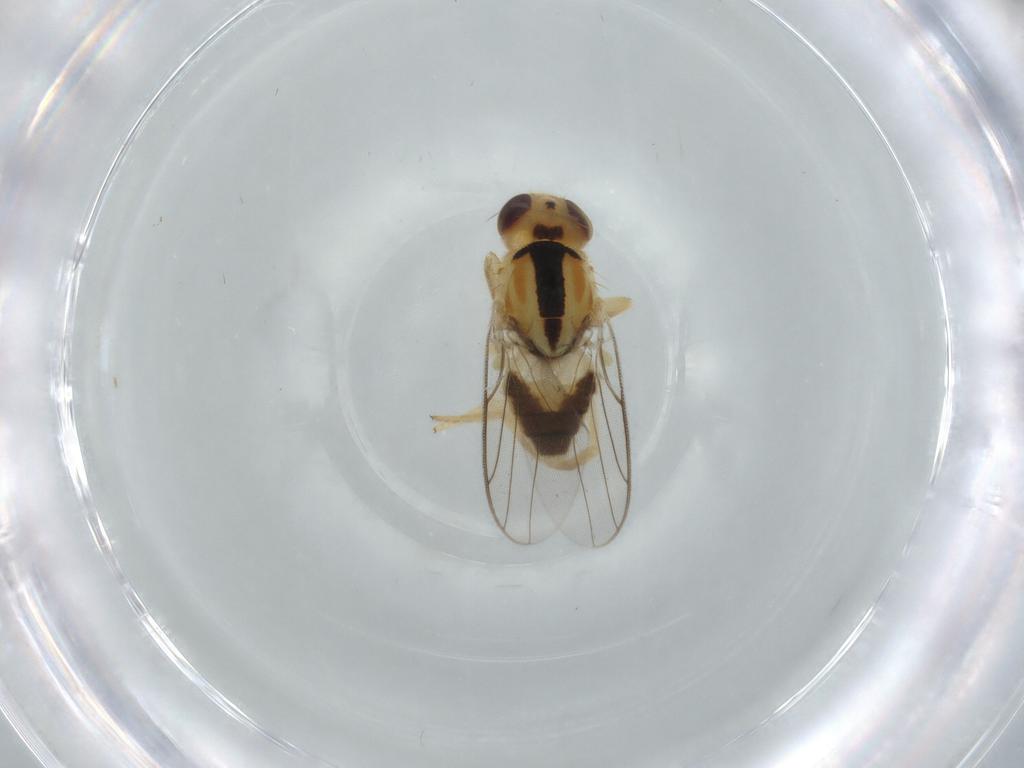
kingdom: Animalia
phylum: Arthropoda
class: Insecta
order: Diptera
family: Chloropidae
